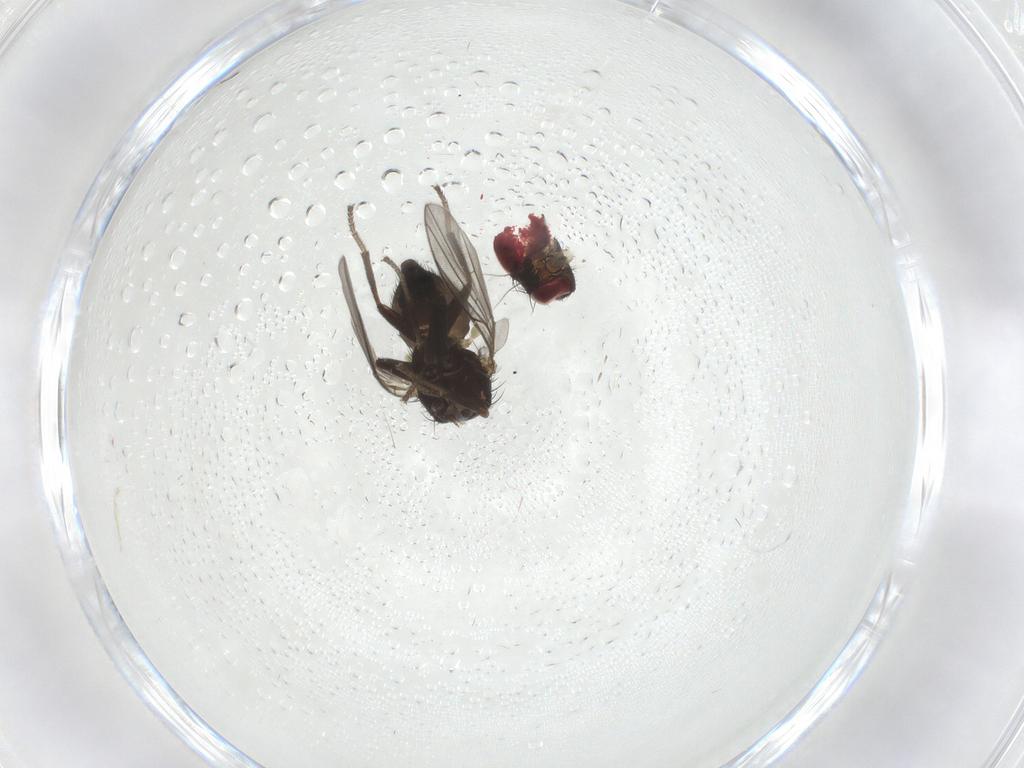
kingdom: Animalia
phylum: Arthropoda
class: Insecta
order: Diptera
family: Agromyzidae
